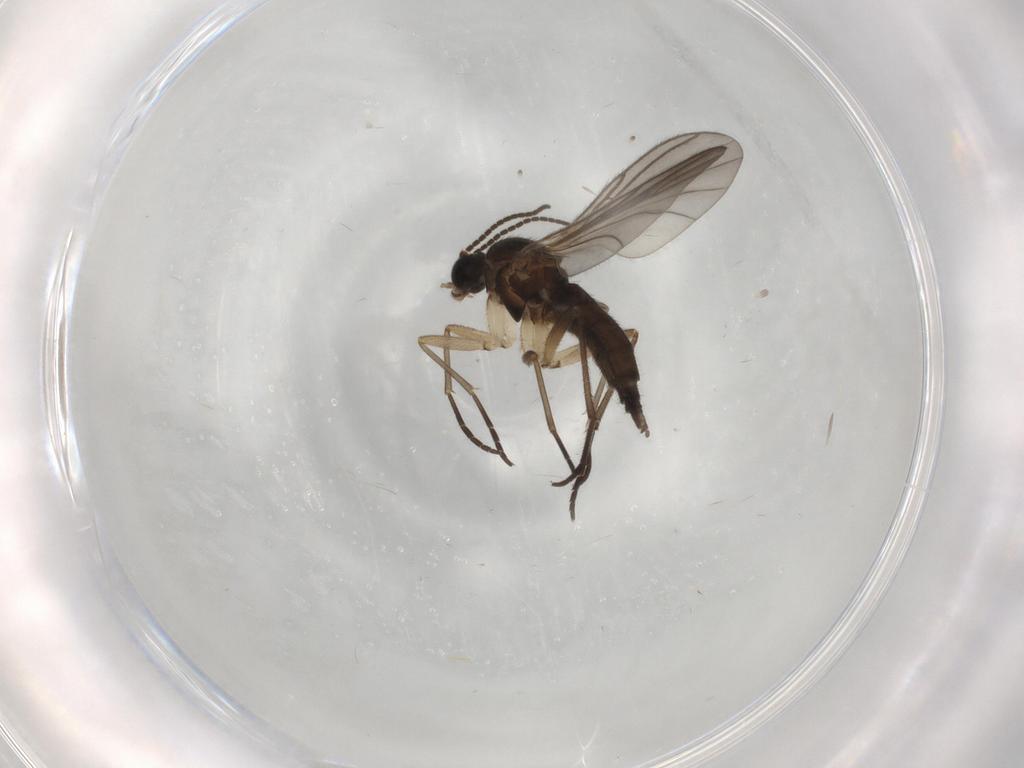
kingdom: Animalia
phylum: Arthropoda
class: Insecta
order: Diptera
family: Sciaridae
